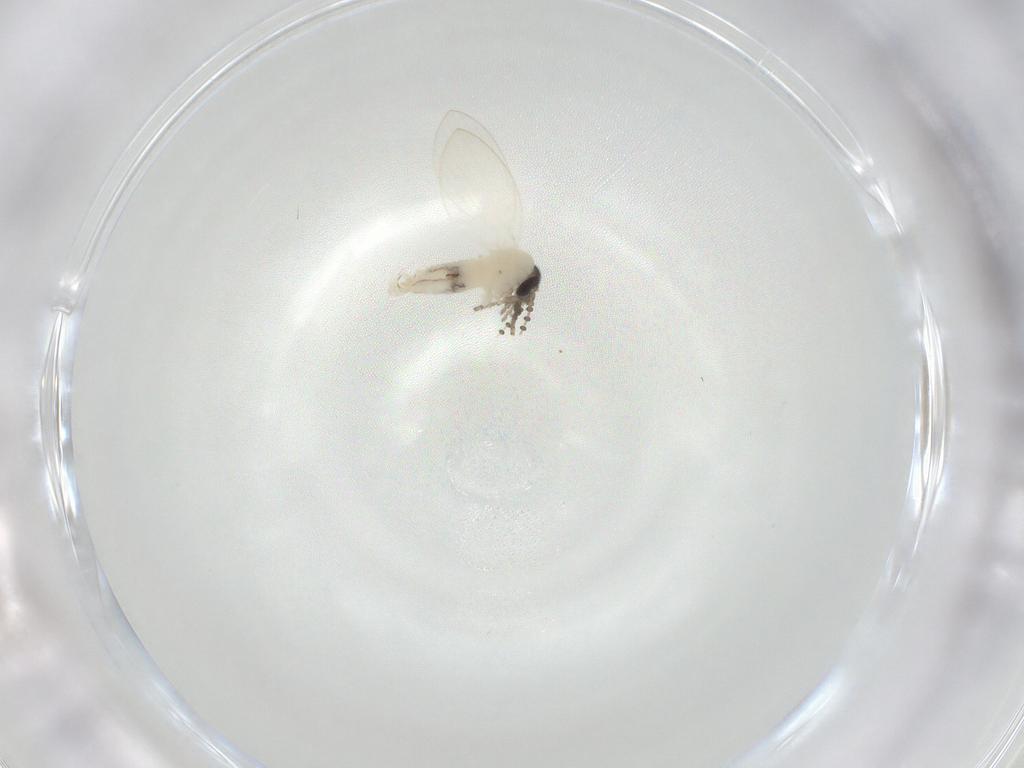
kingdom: Animalia
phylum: Arthropoda
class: Insecta
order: Diptera
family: Psychodidae
